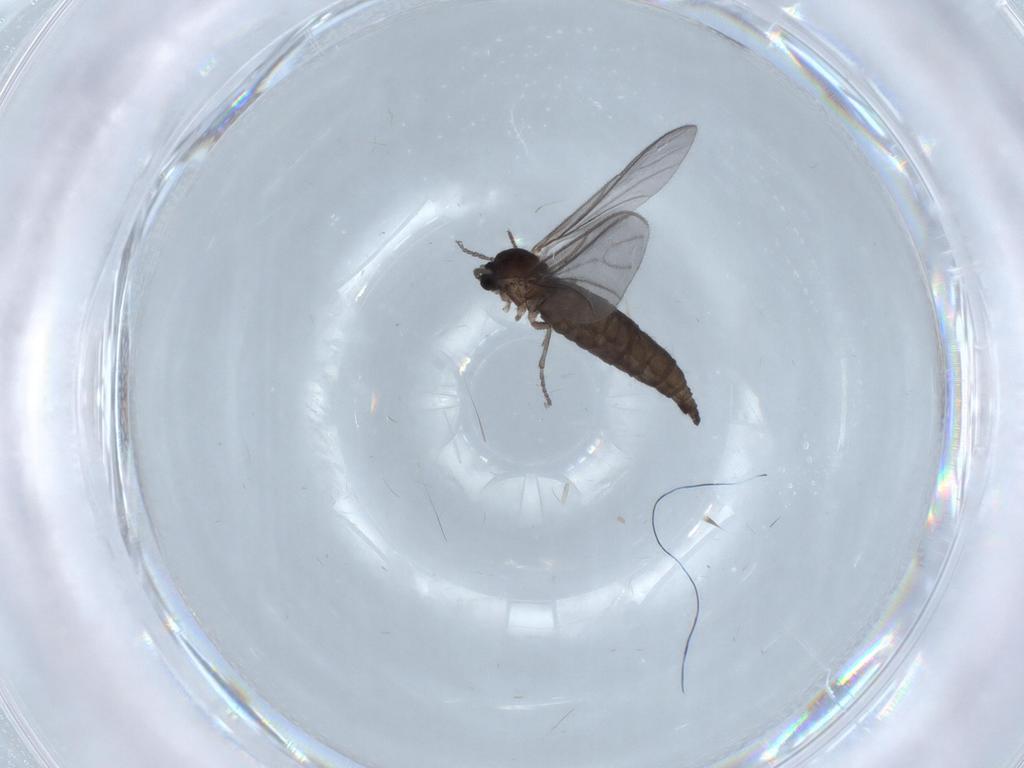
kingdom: Animalia
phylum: Arthropoda
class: Insecta
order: Diptera
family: Sciaridae
